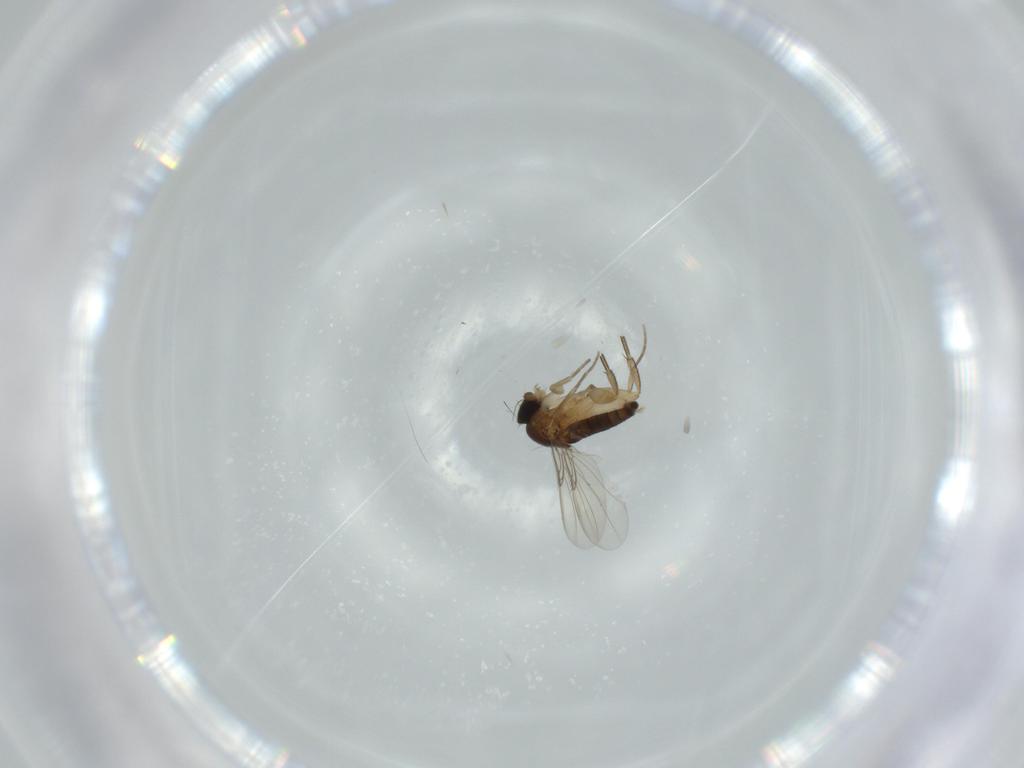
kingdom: Animalia
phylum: Arthropoda
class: Insecta
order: Diptera
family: Phoridae
